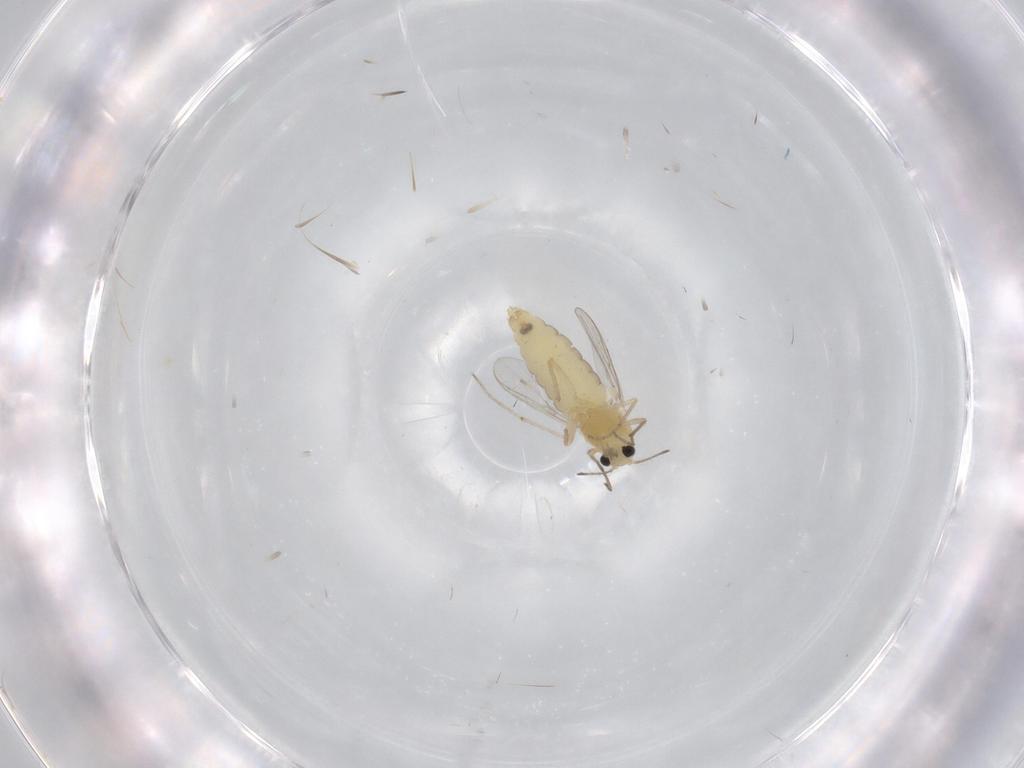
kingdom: Animalia
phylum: Arthropoda
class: Insecta
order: Diptera
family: Chironomidae
